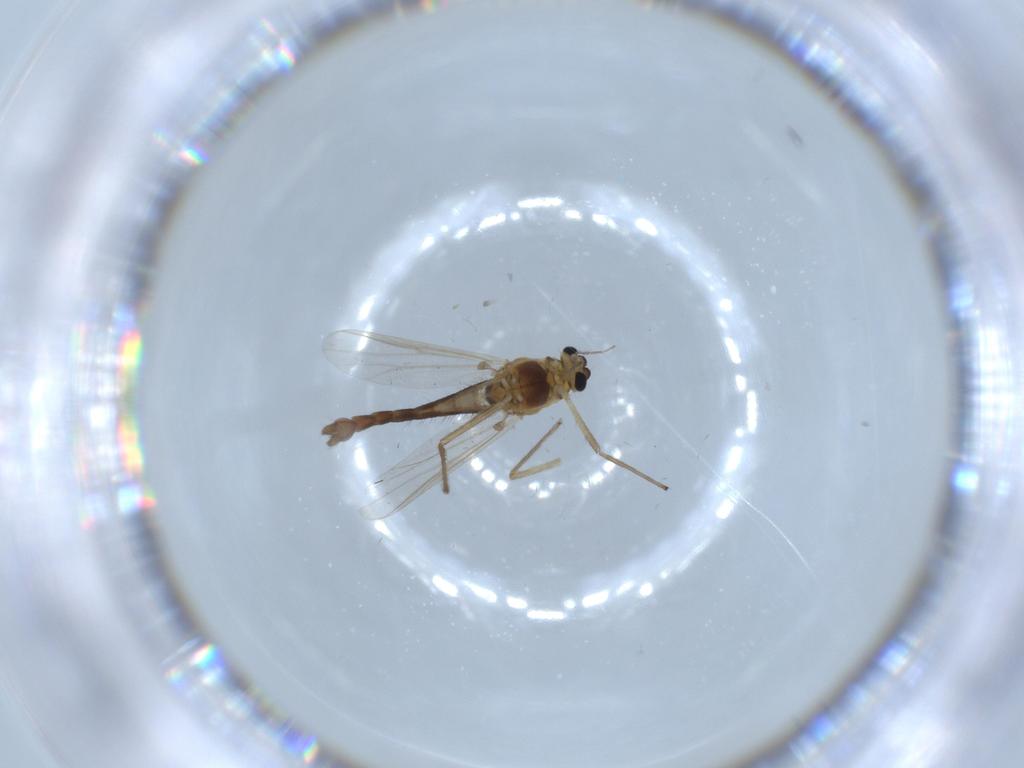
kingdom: Animalia
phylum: Arthropoda
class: Insecta
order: Diptera
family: Chironomidae
